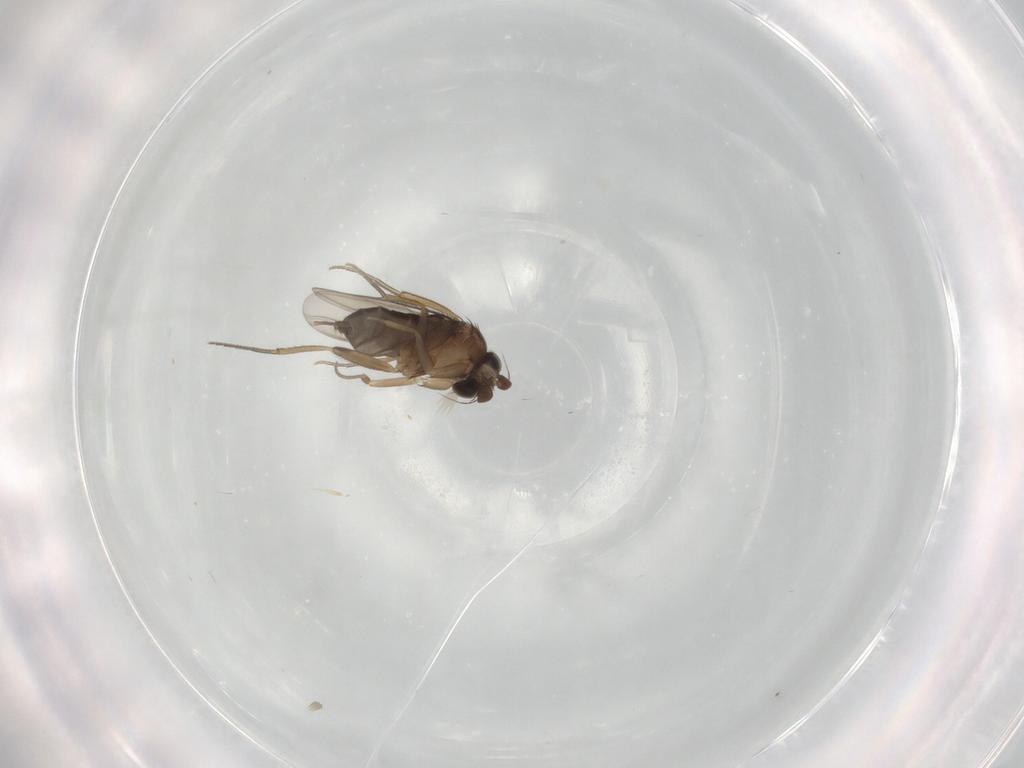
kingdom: Animalia
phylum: Arthropoda
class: Insecta
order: Diptera
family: Phoridae
